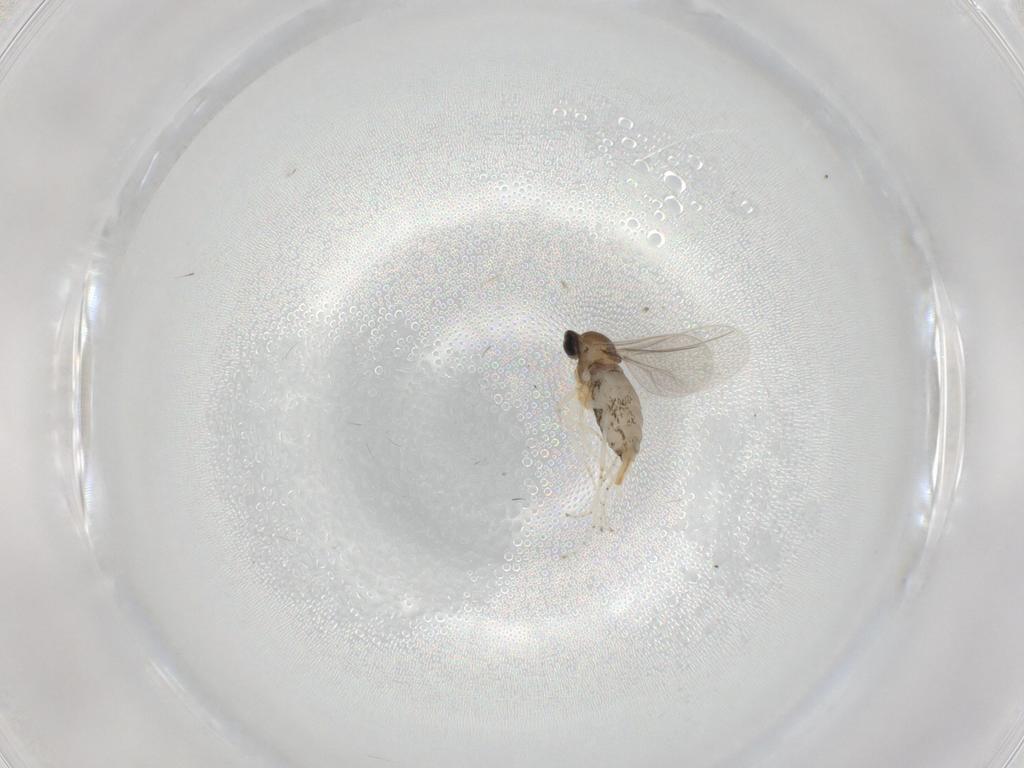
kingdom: Animalia
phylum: Arthropoda
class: Insecta
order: Diptera
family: Cecidomyiidae
